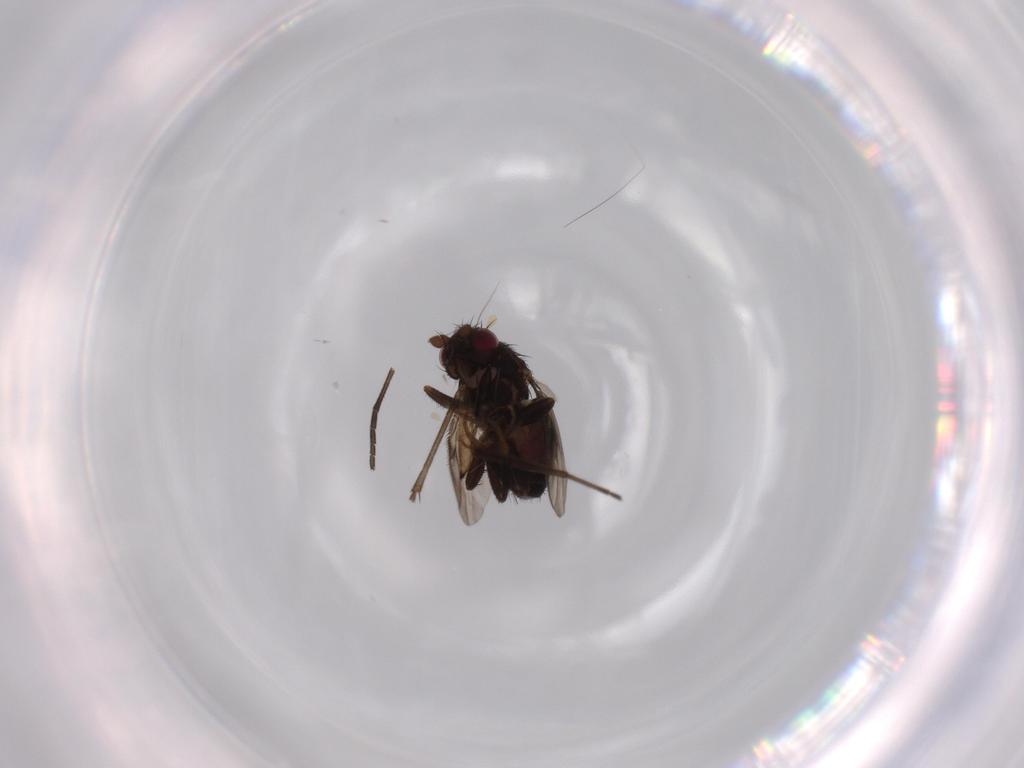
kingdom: Animalia
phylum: Arthropoda
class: Insecta
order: Diptera
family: Sphaeroceridae
